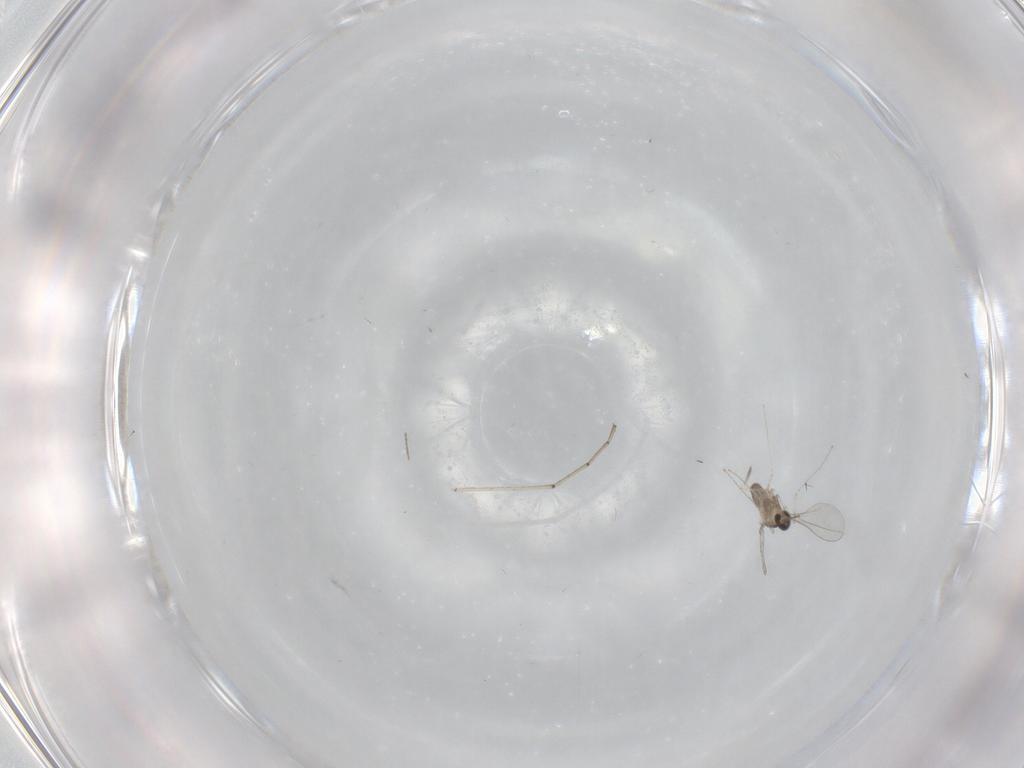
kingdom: Animalia
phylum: Arthropoda
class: Insecta
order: Diptera
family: Cecidomyiidae
